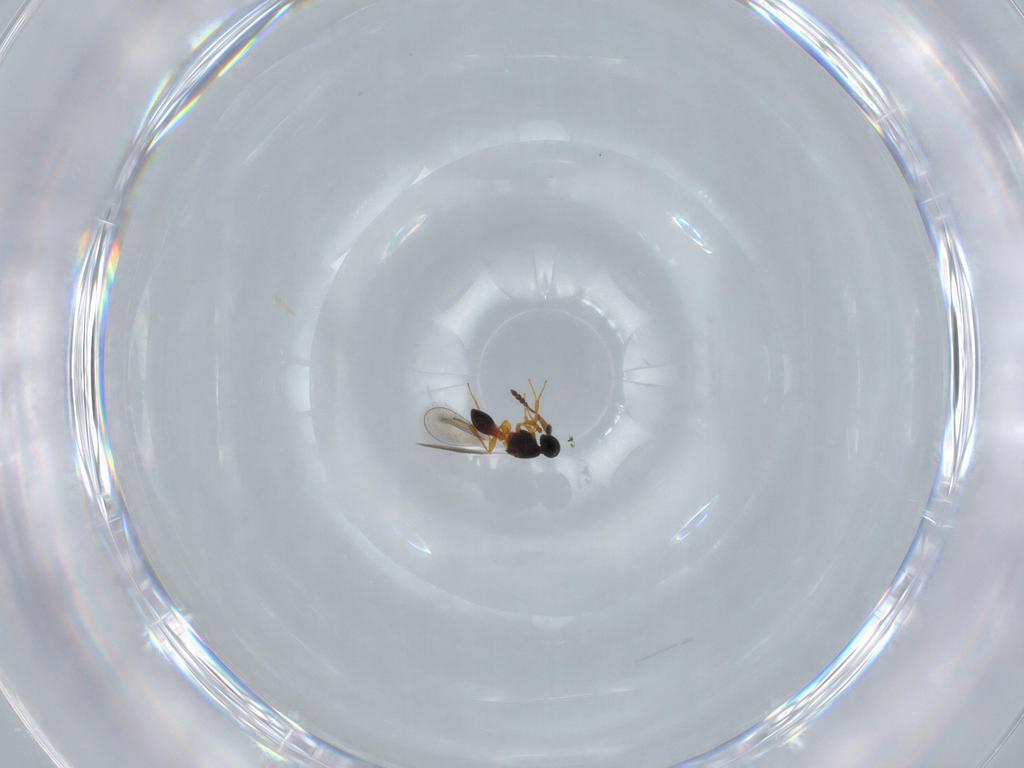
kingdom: Animalia
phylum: Arthropoda
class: Insecta
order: Hymenoptera
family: Platygastridae
